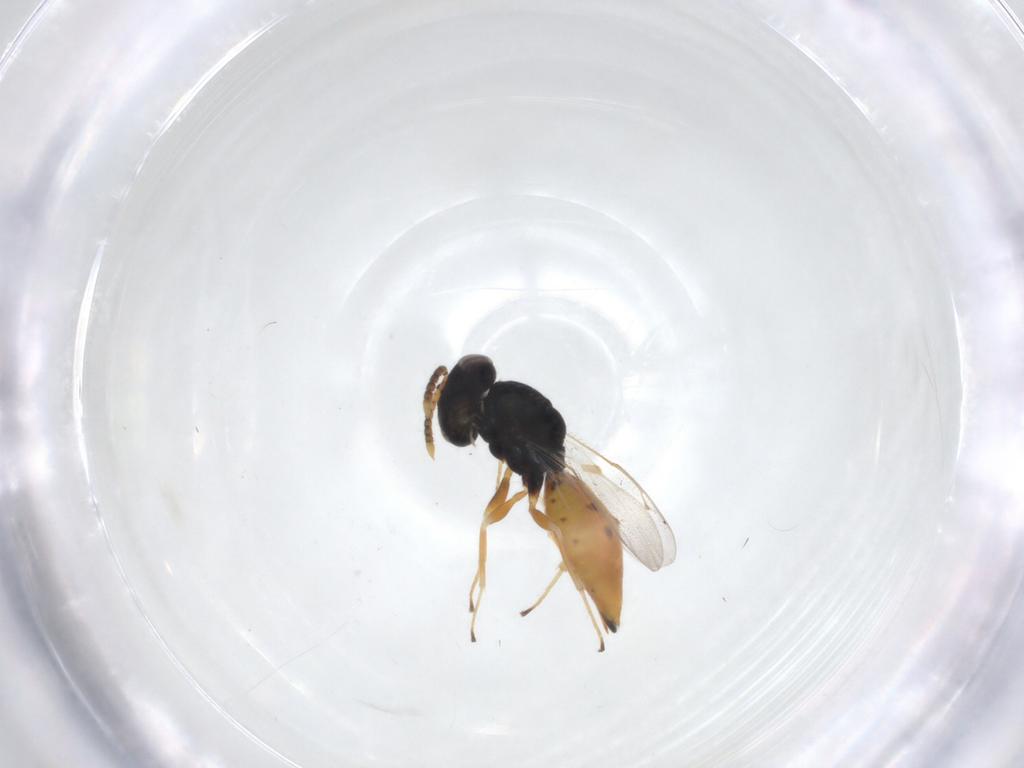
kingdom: Animalia
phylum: Arthropoda
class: Insecta
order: Hymenoptera
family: Pteromalidae
